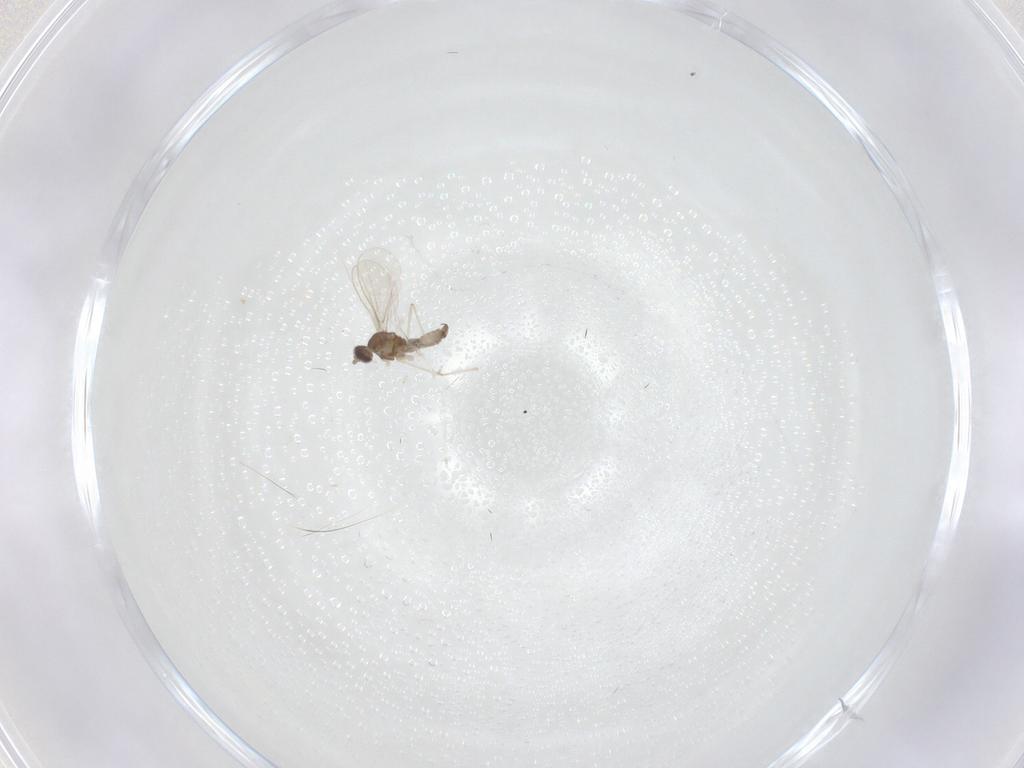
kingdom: Animalia
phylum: Arthropoda
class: Insecta
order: Diptera
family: Cecidomyiidae
